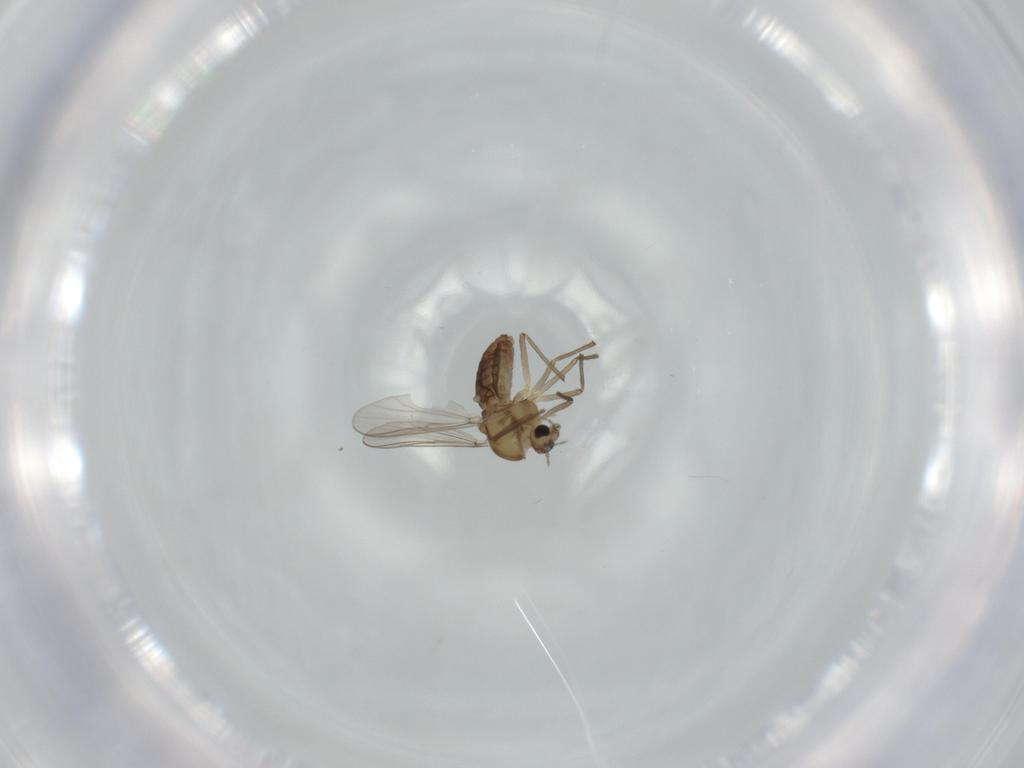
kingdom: Animalia
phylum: Arthropoda
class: Insecta
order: Diptera
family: Chironomidae
